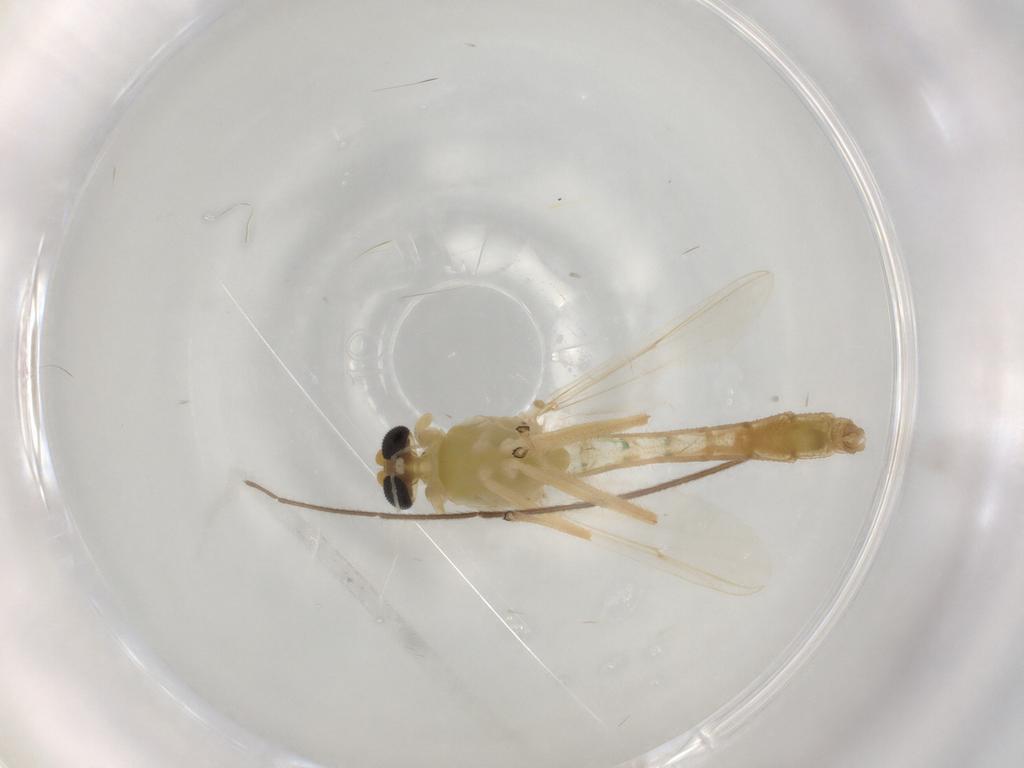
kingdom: Animalia
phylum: Arthropoda
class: Insecta
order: Diptera
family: Chironomidae
